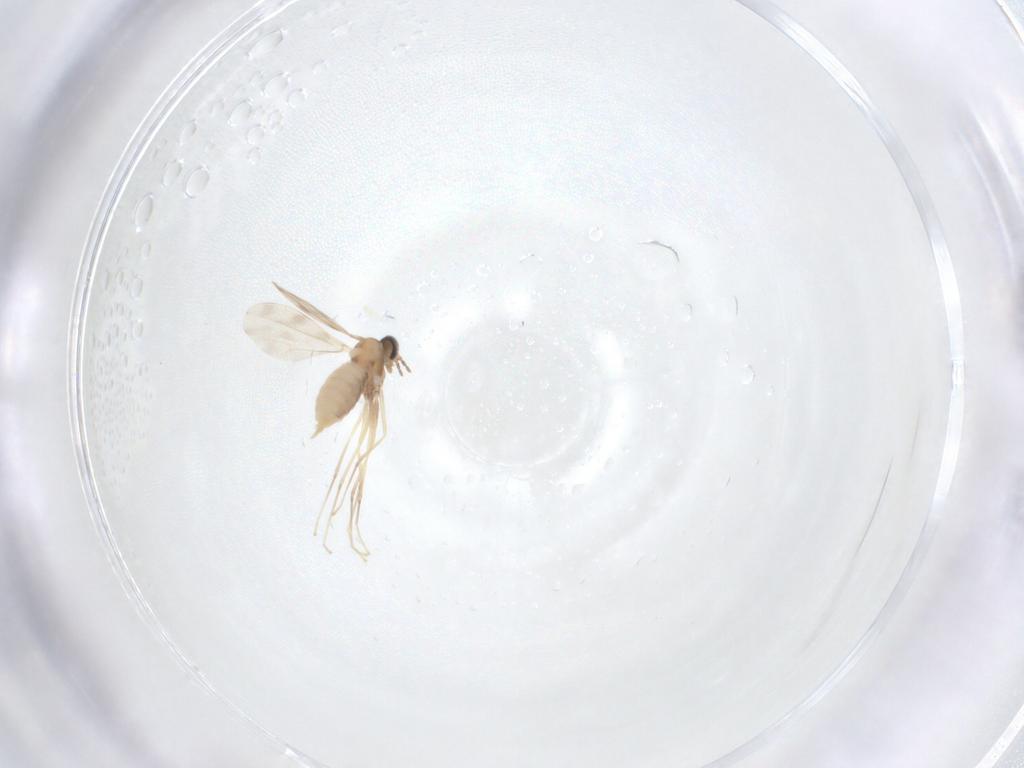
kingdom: Animalia
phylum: Arthropoda
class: Insecta
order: Diptera
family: Cecidomyiidae
